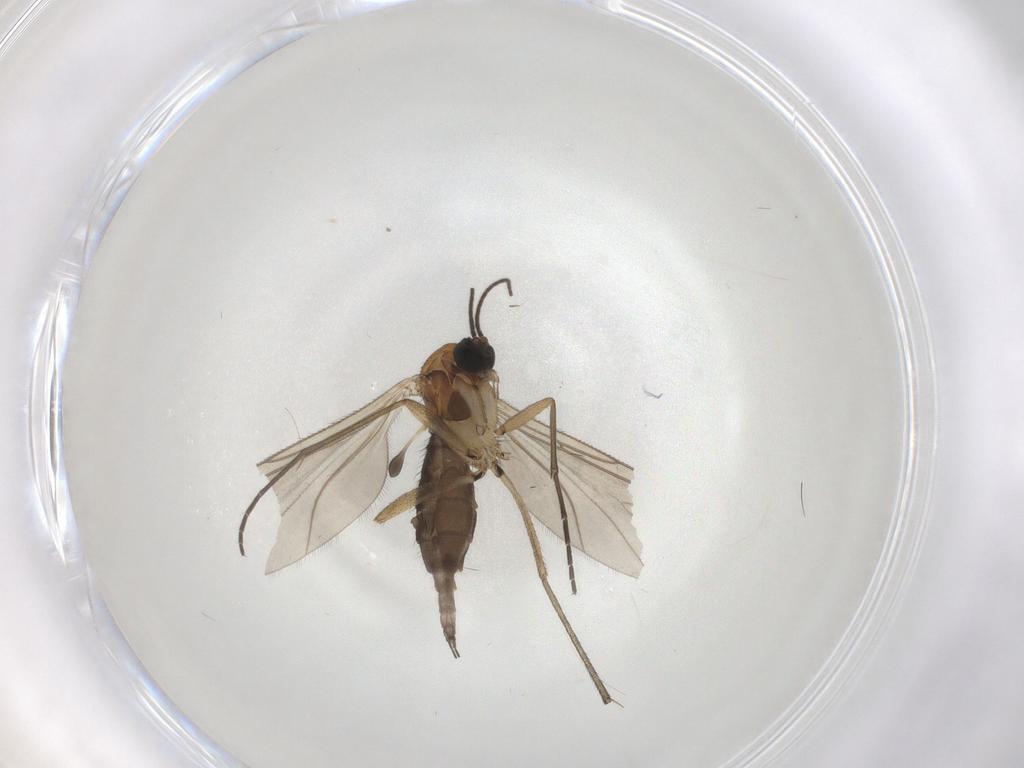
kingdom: Animalia
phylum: Arthropoda
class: Insecta
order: Diptera
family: Sciaridae
